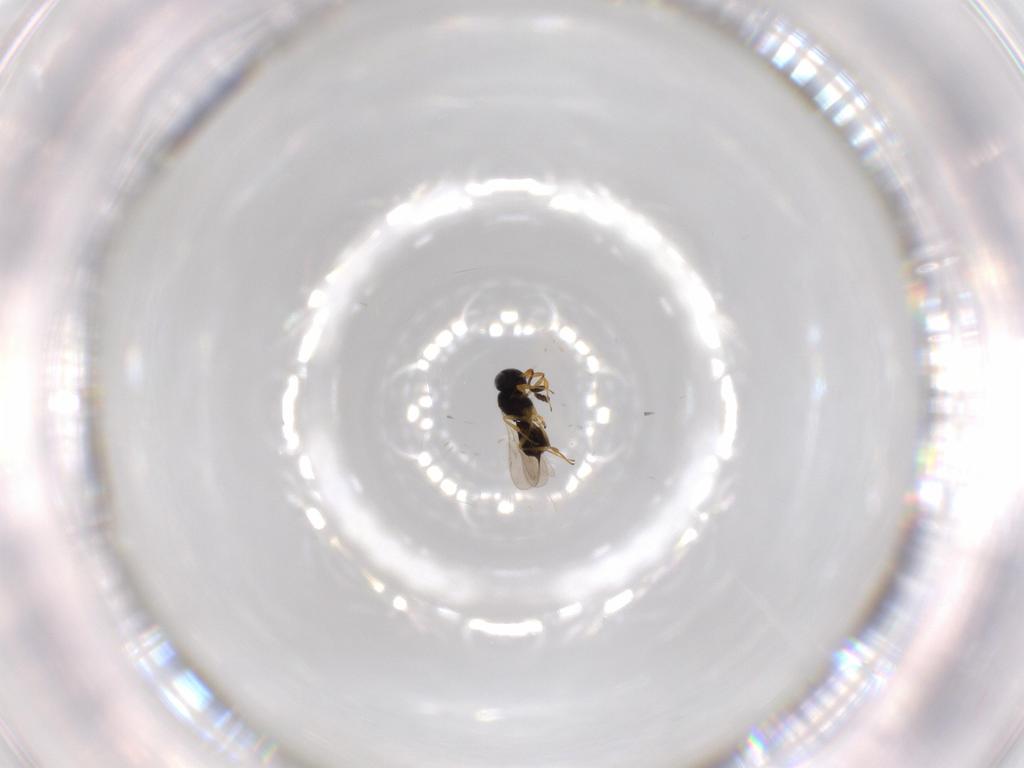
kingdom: Animalia
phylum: Arthropoda
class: Insecta
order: Hymenoptera
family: Scelionidae
